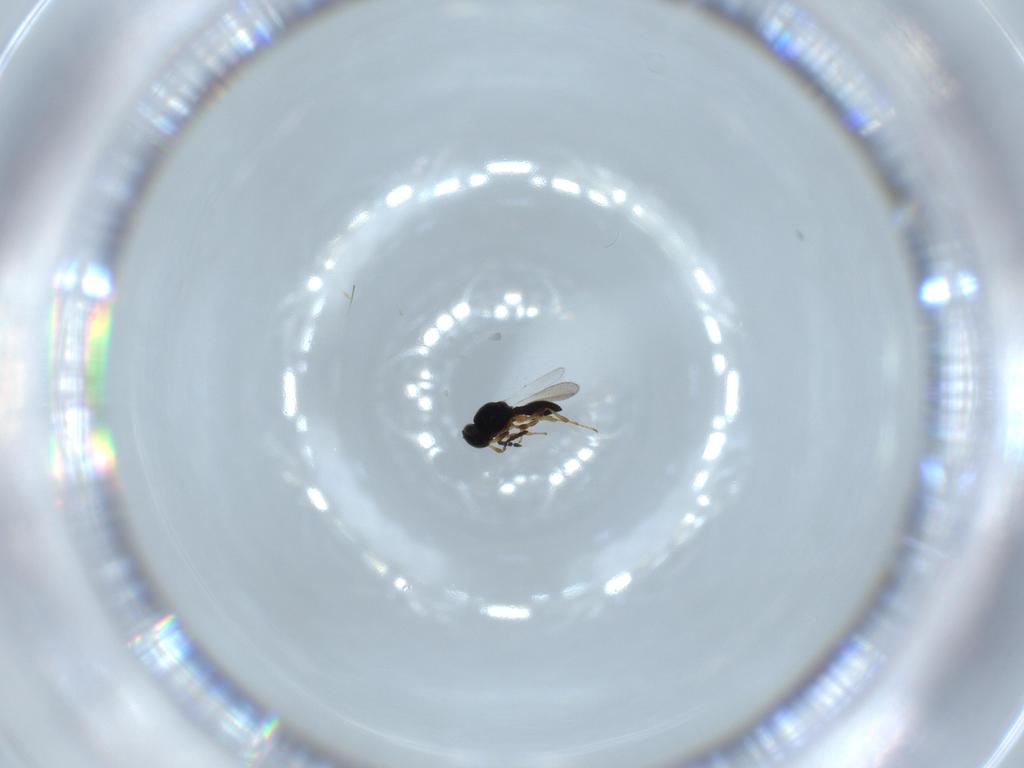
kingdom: Animalia
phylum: Arthropoda
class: Insecta
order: Hymenoptera
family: Platygastridae
